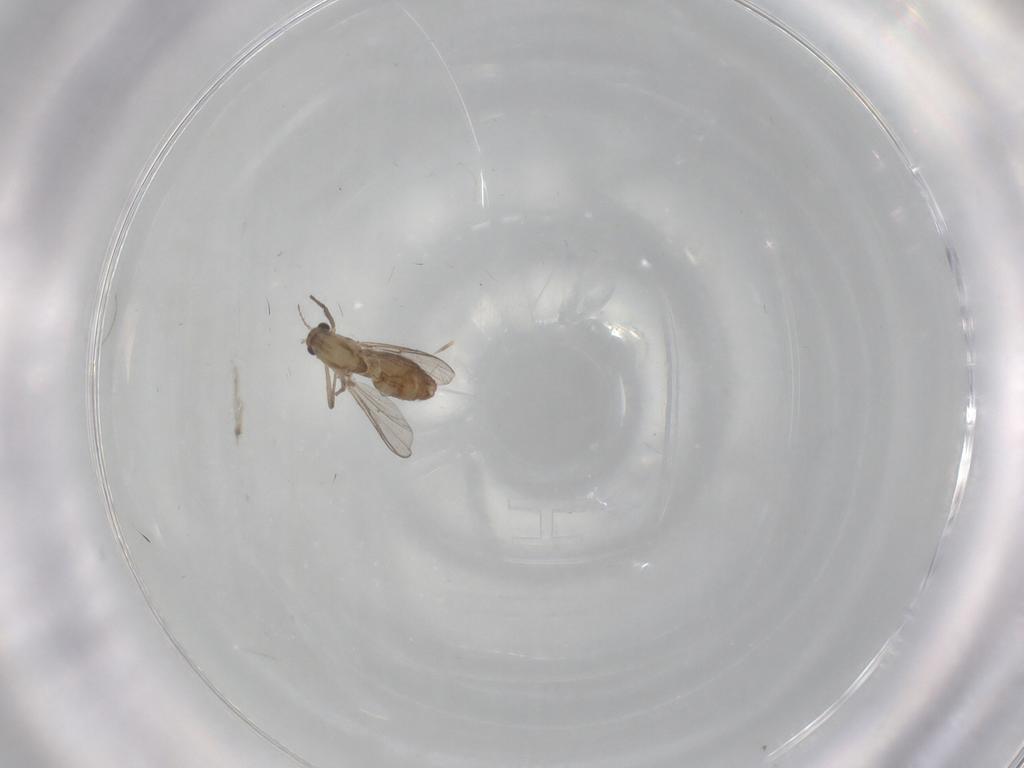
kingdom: Animalia
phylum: Arthropoda
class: Insecta
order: Diptera
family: Chironomidae
